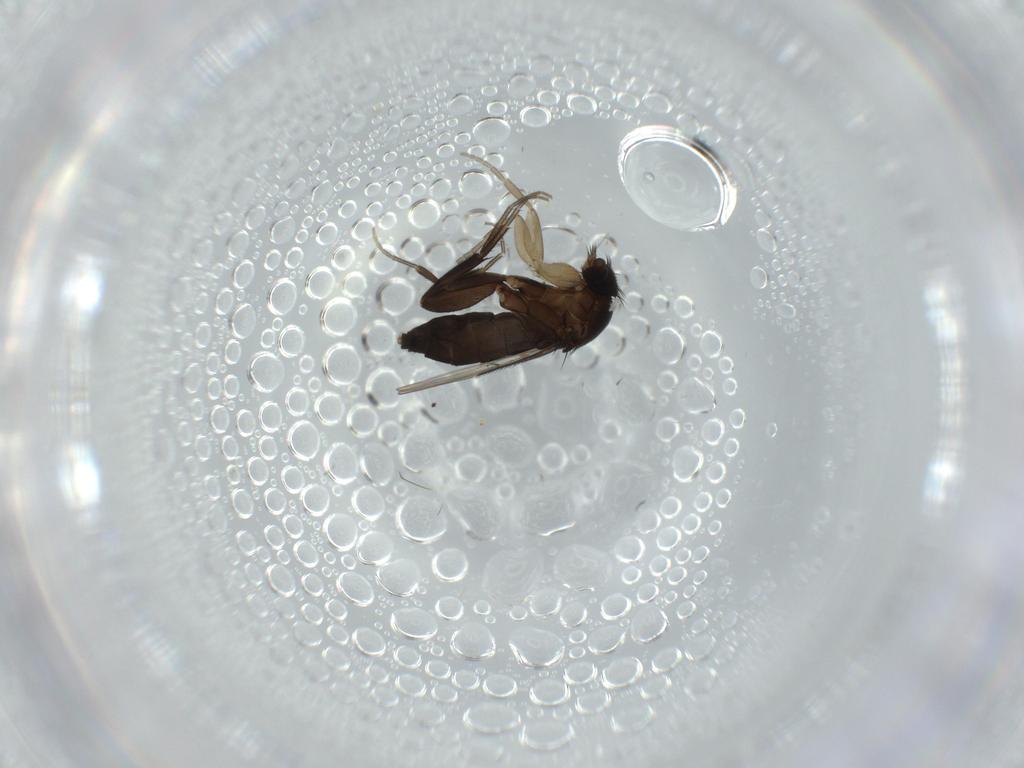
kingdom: Animalia
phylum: Arthropoda
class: Insecta
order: Diptera
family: Phoridae
